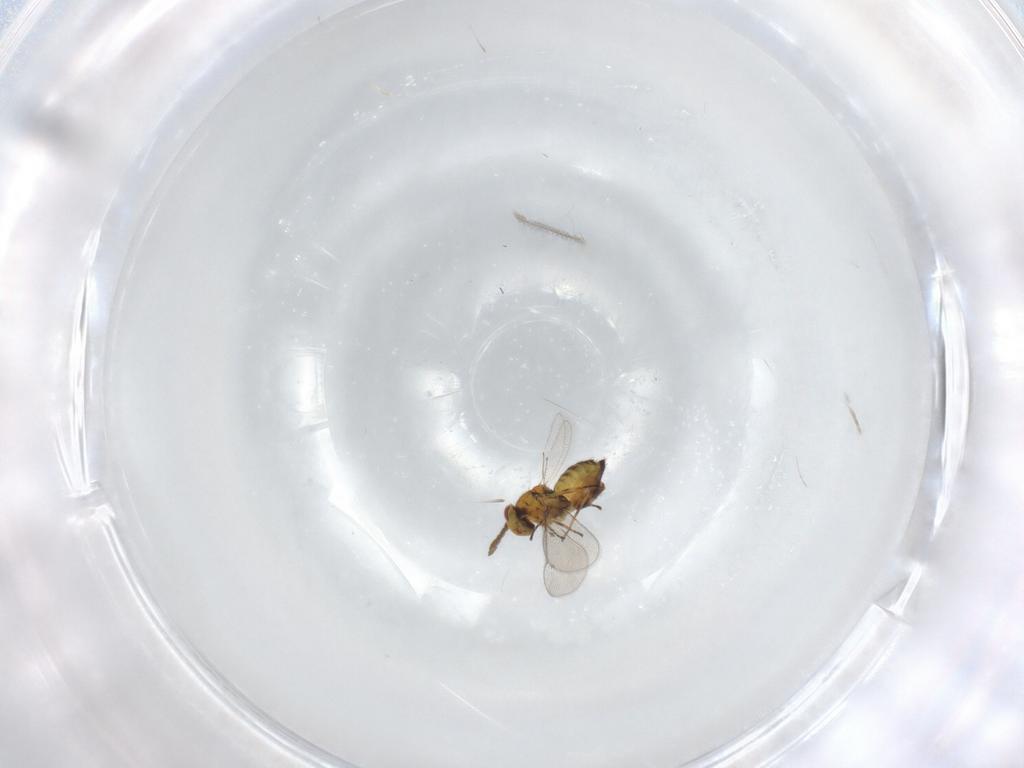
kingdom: Animalia
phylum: Arthropoda
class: Insecta
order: Hymenoptera
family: Eulophidae
